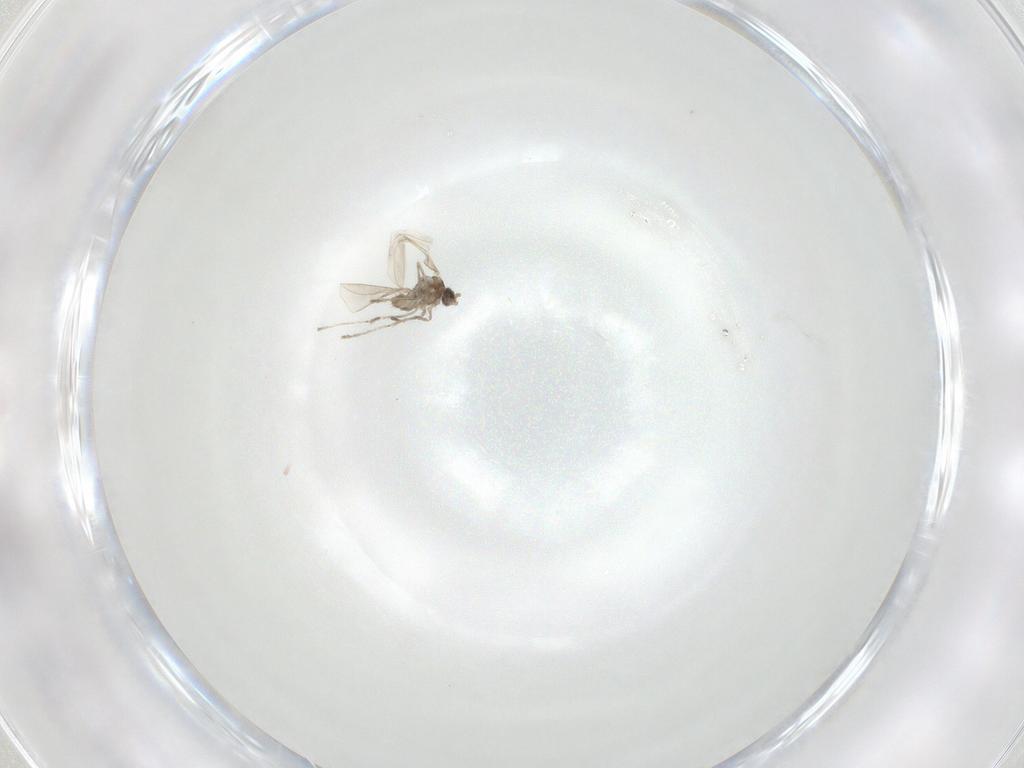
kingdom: Animalia
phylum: Arthropoda
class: Insecta
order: Diptera
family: Cecidomyiidae
